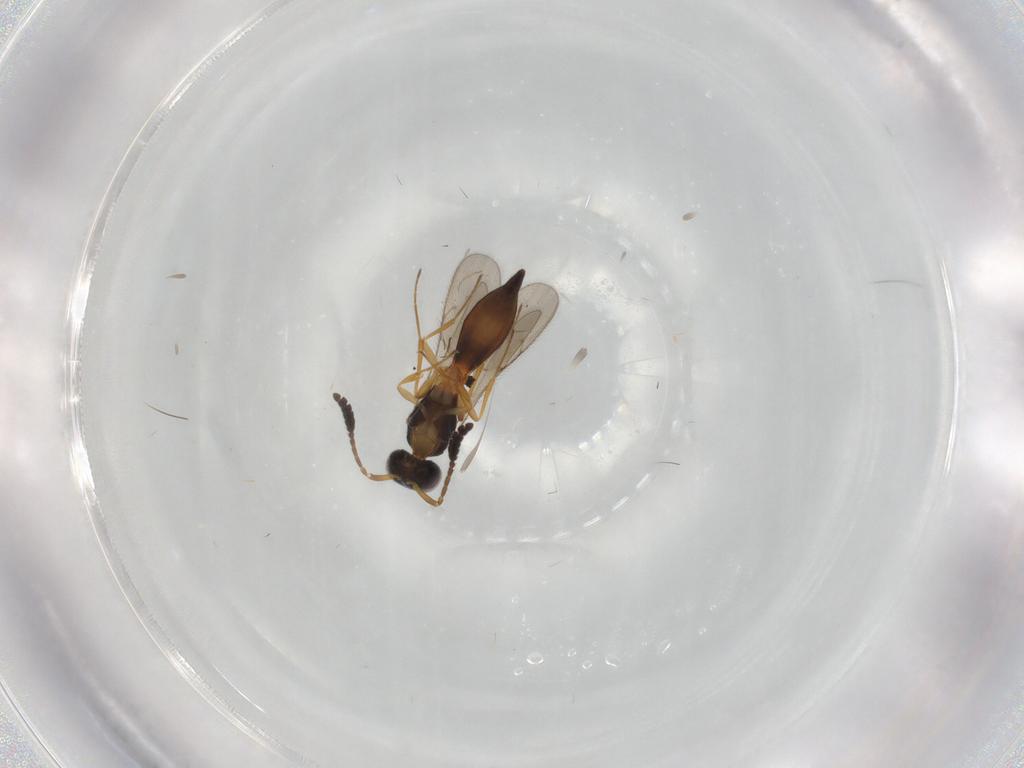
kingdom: Animalia
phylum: Arthropoda
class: Insecta
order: Hymenoptera
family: Scelionidae
